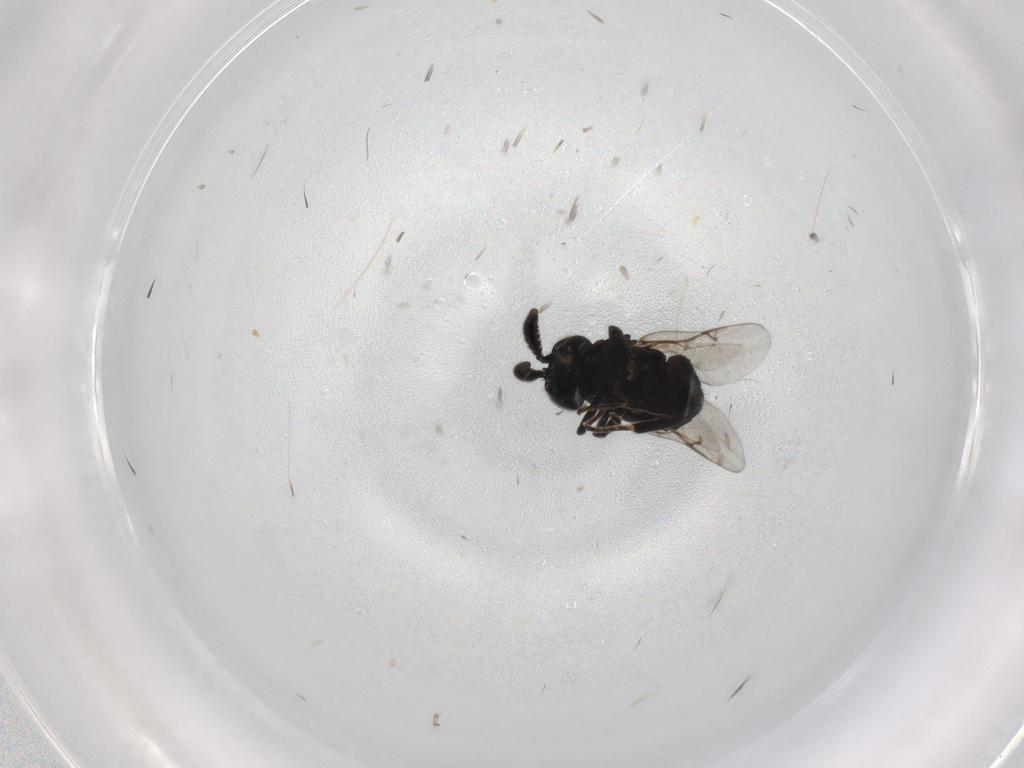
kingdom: Animalia
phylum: Arthropoda
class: Insecta
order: Hymenoptera
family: Encyrtidae
